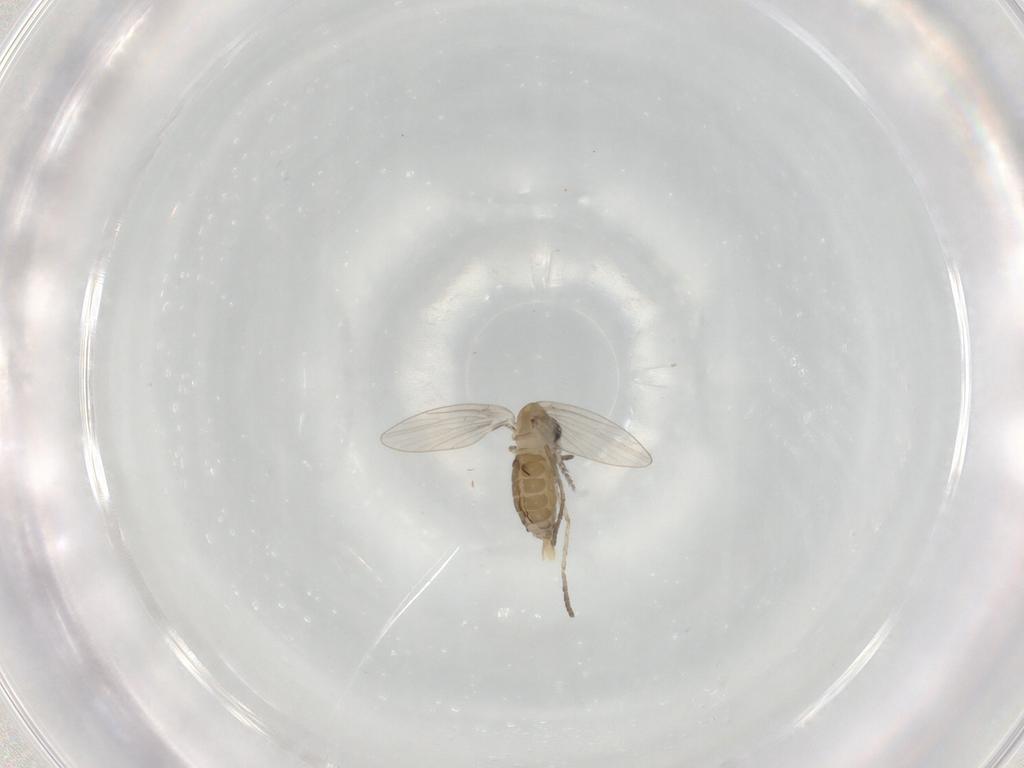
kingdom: Animalia
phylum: Arthropoda
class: Insecta
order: Diptera
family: Psychodidae
